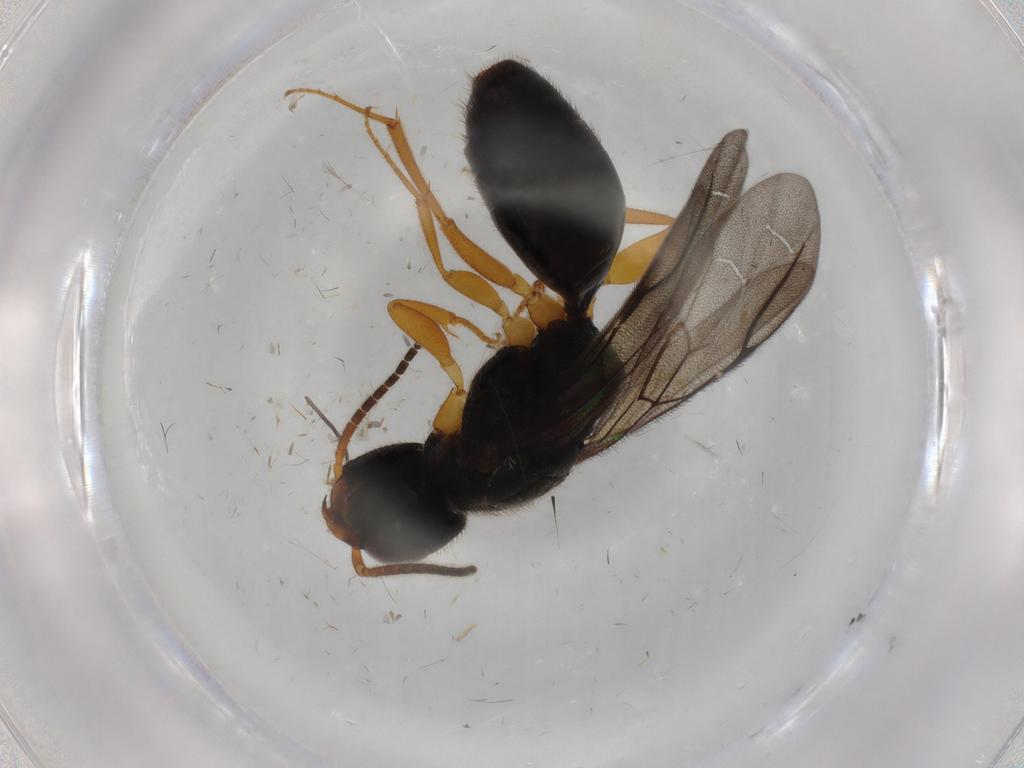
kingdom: Animalia
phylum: Arthropoda
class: Insecta
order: Hymenoptera
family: Bethylidae
